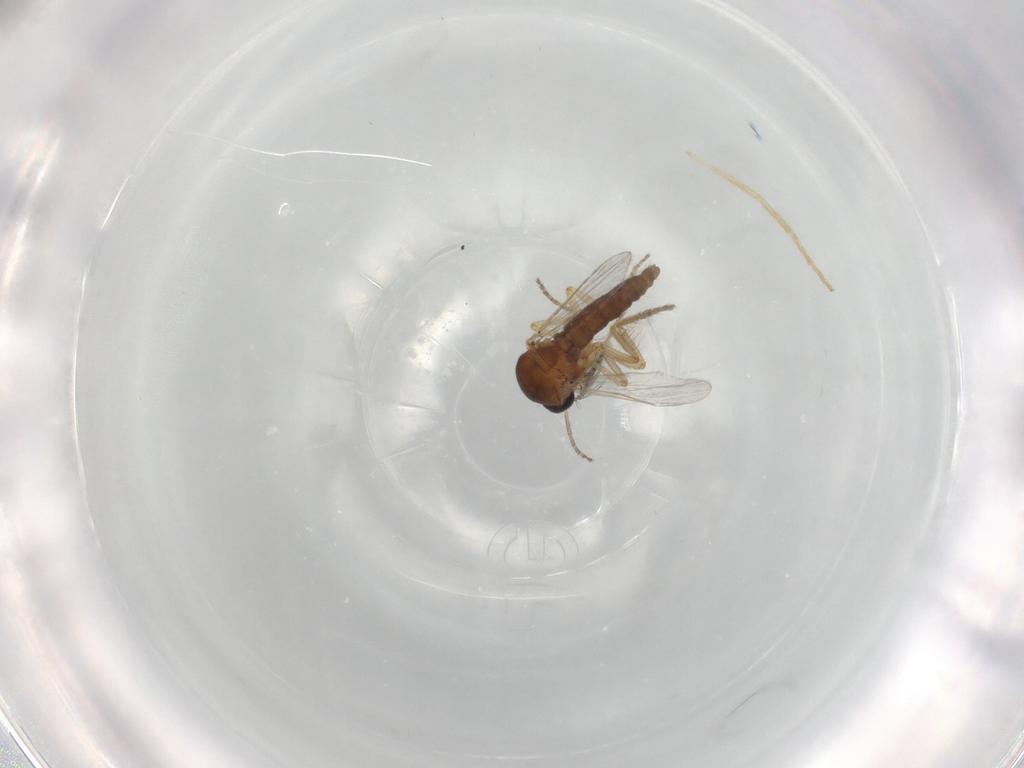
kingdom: Animalia
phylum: Arthropoda
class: Insecta
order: Diptera
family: Ceratopogonidae
